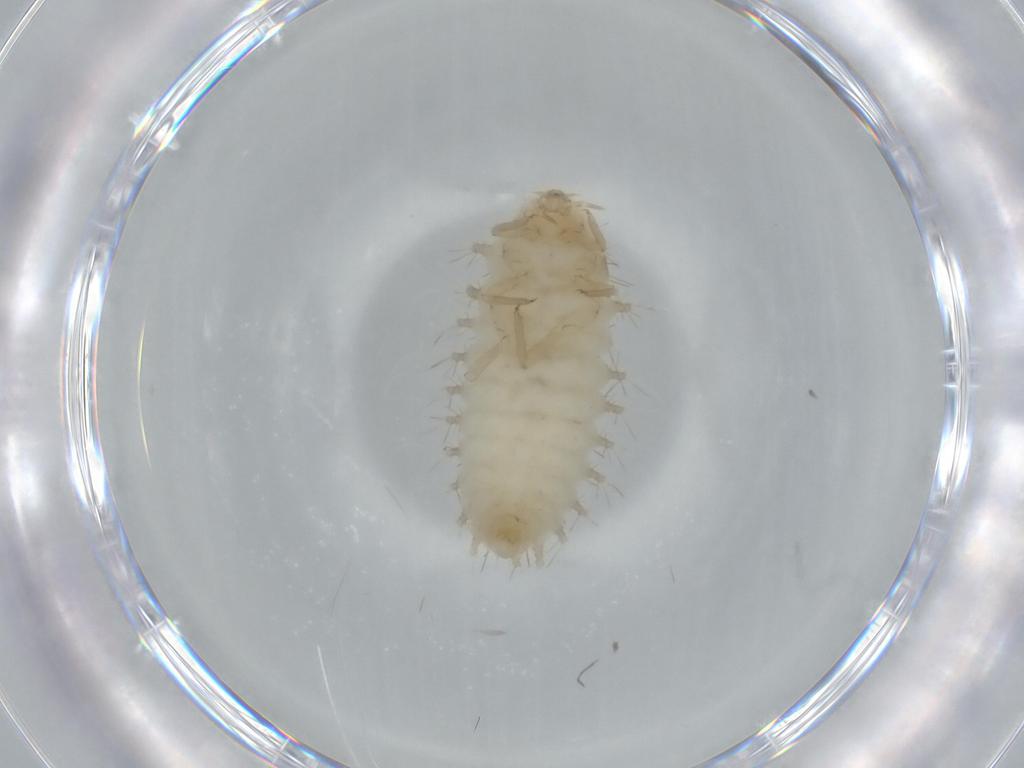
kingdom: Animalia
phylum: Arthropoda
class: Insecta
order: Coleoptera
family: Coccinellidae
